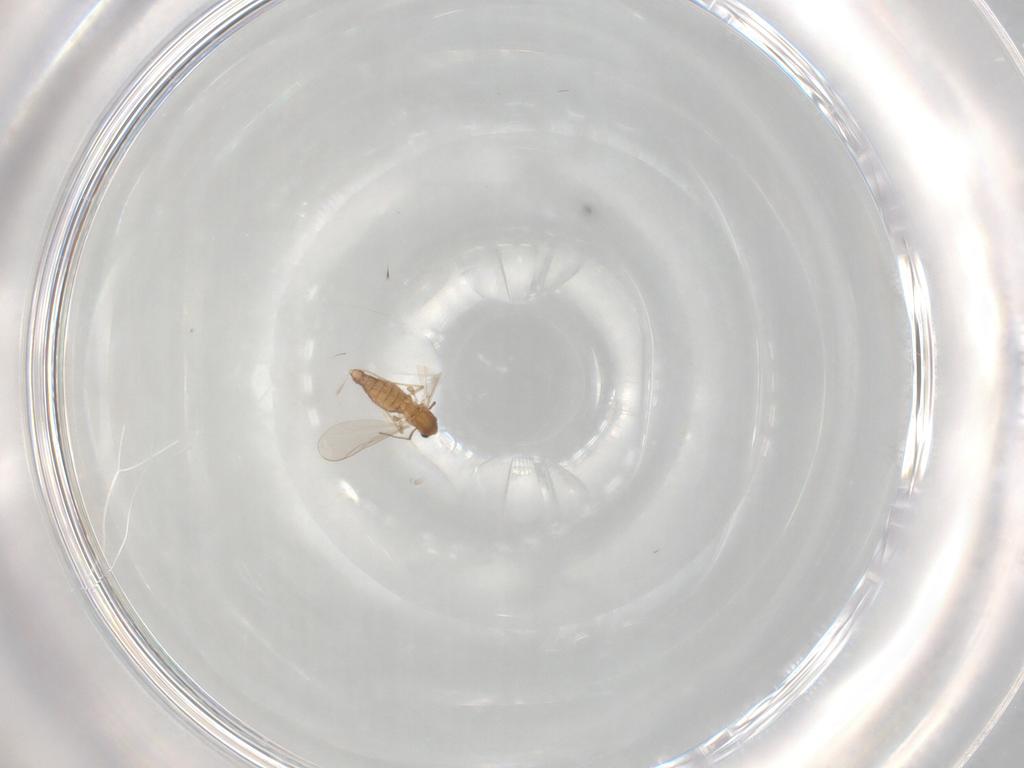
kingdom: Animalia
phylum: Arthropoda
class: Insecta
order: Diptera
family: Chironomidae
